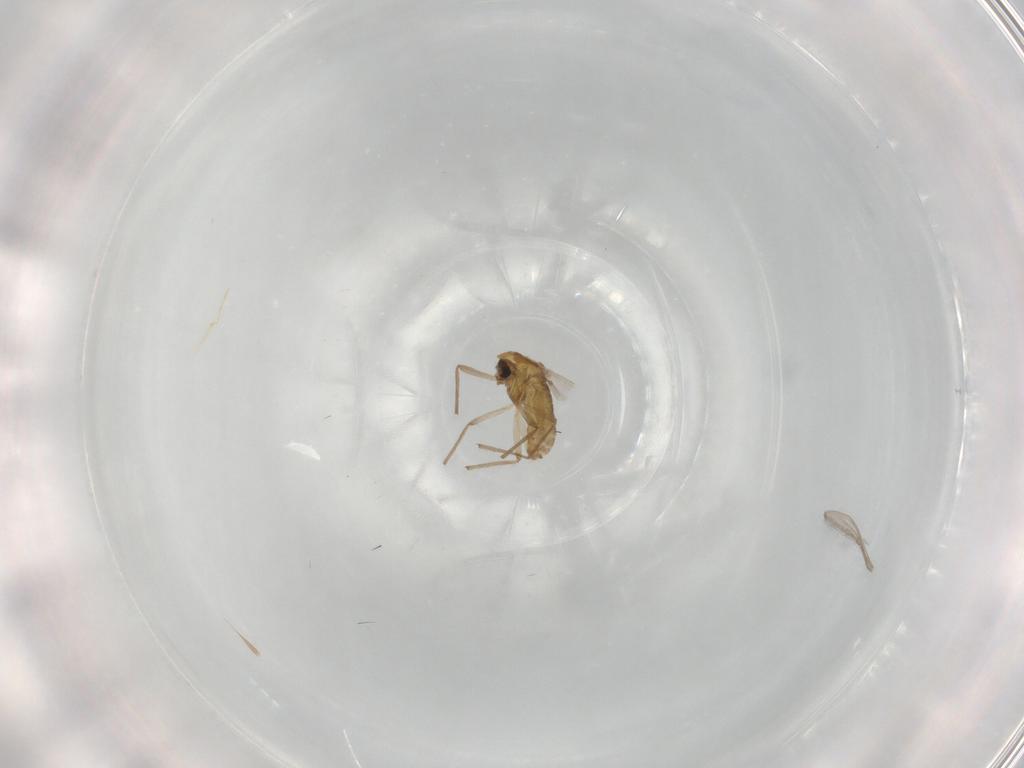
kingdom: Animalia
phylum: Arthropoda
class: Insecta
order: Diptera
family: Chironomidae
